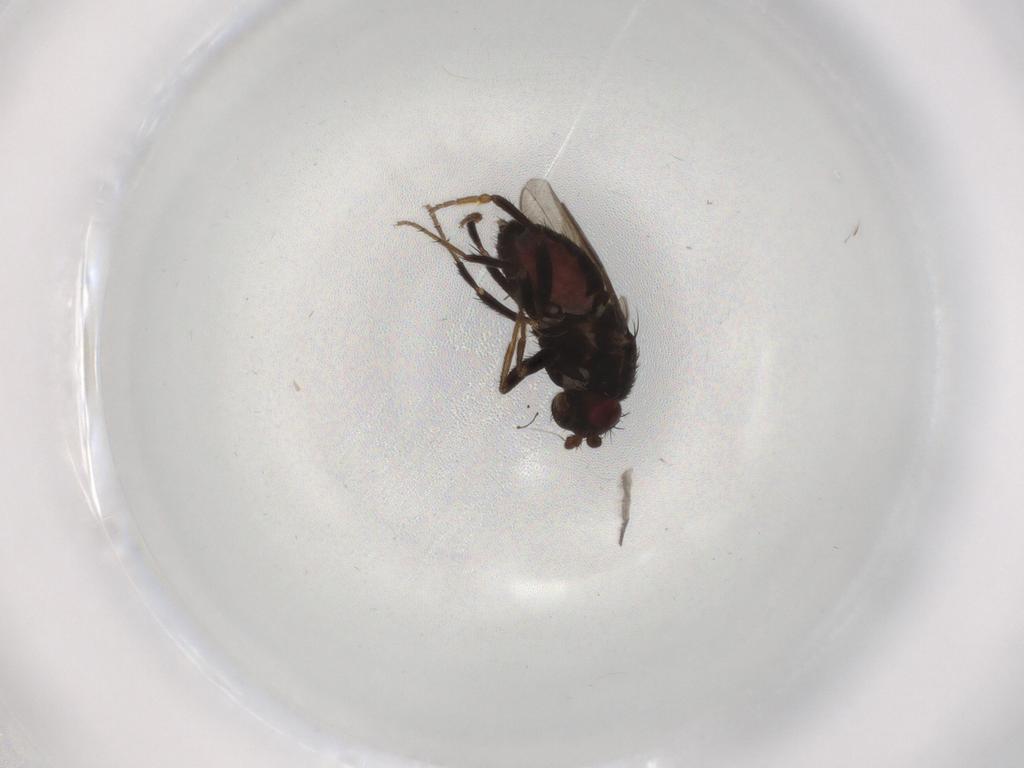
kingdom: Animalia
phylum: Arthropoda
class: Insecta
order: Diptera
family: Sphaeroceridae
